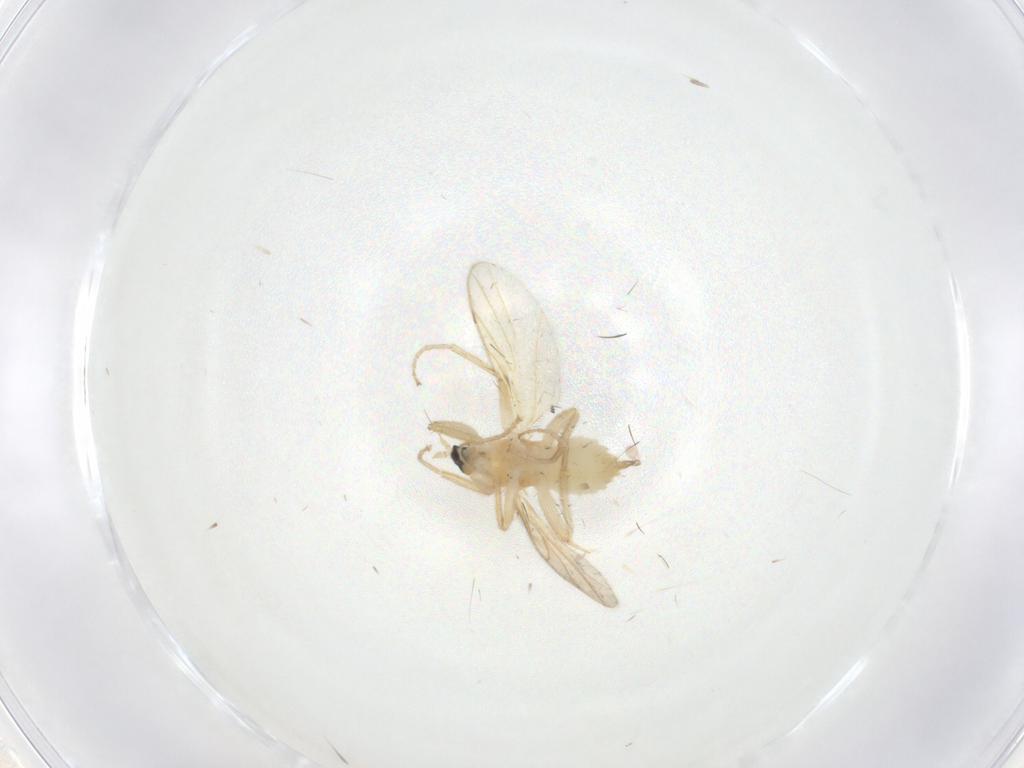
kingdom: Animalia
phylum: Arthropoda
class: Insecta
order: Diptera
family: Hybotidae
